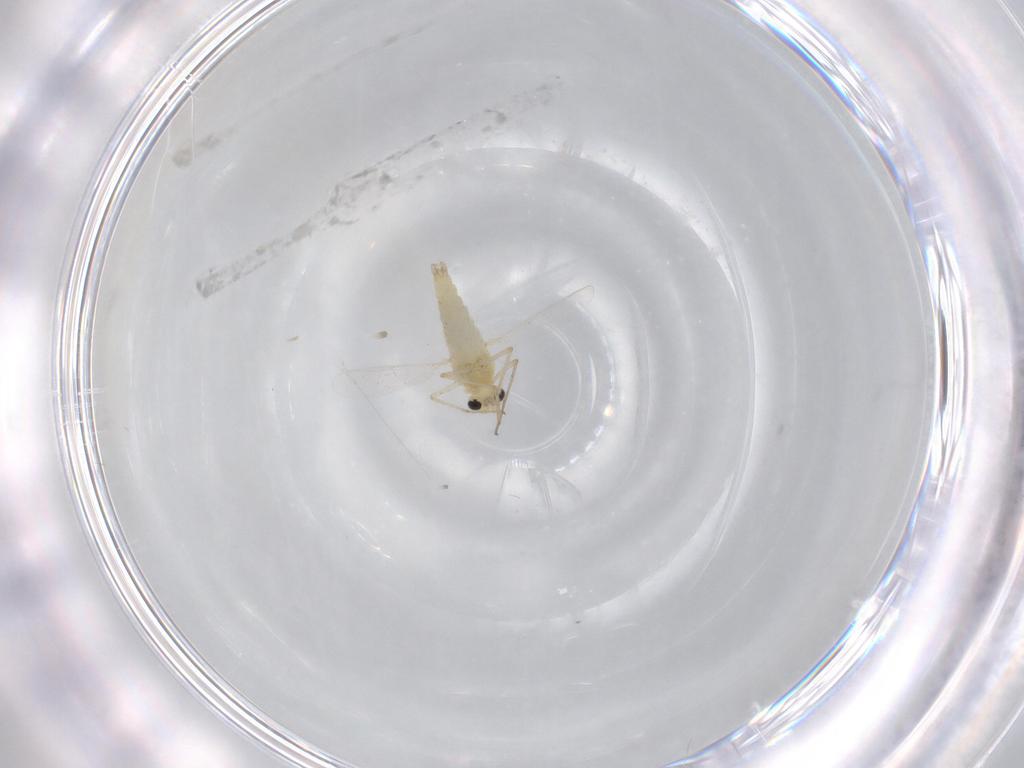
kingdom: Animalia
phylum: Arthropoda
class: Insecta
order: Diptera
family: Chironomidae
